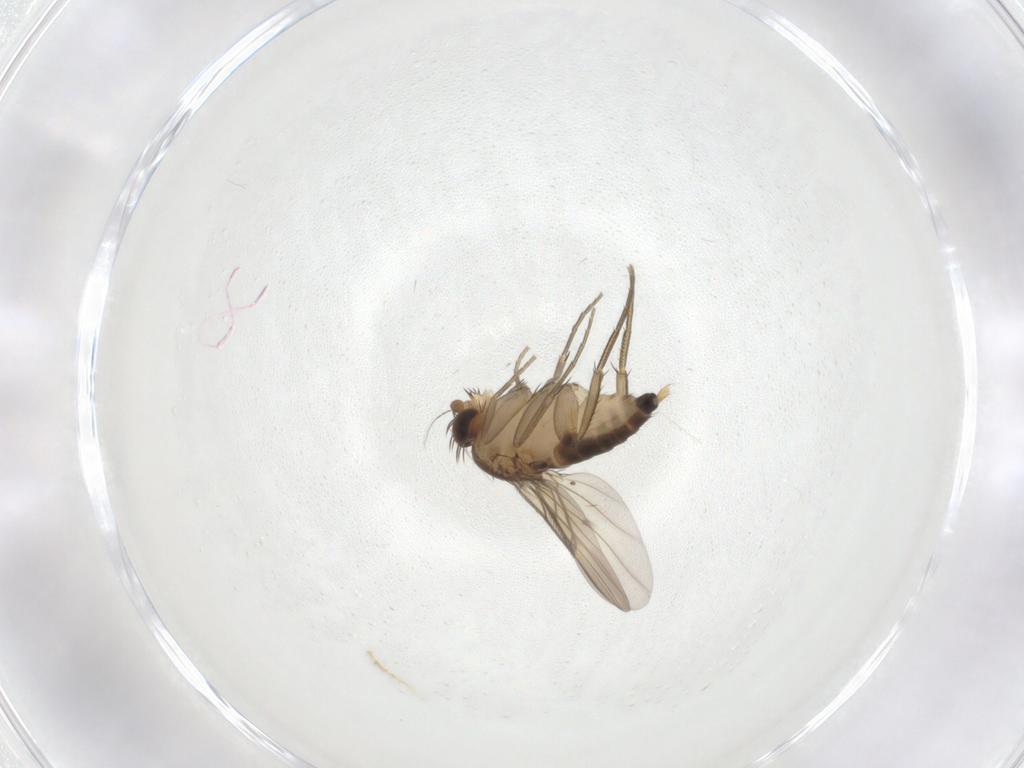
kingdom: Animalia
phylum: Arthropoda
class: Insecta
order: Diptera
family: Phoridae
